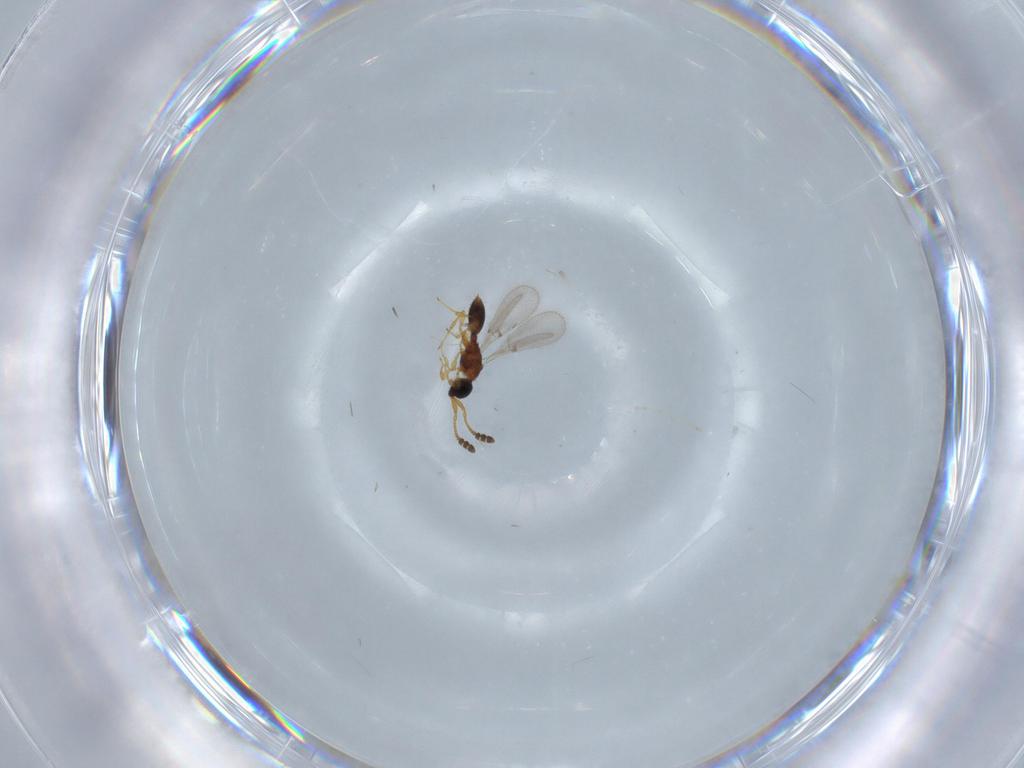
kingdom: Animalia
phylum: Arthropoda
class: Insecta
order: Hymenoptera
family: Diapriidae
